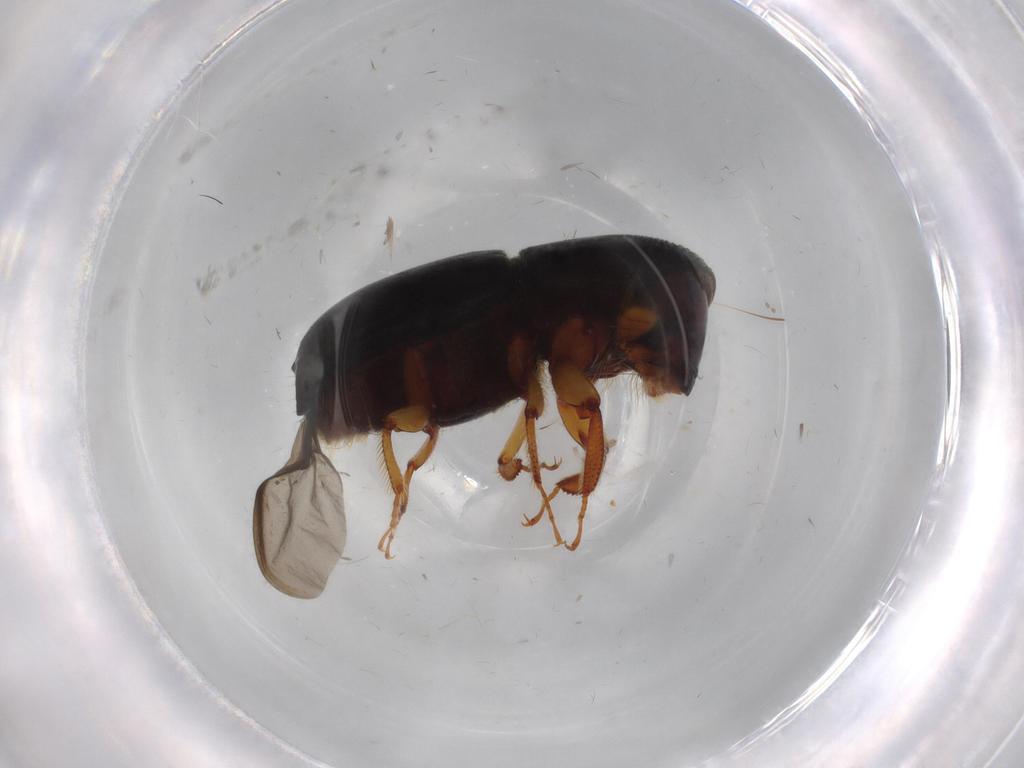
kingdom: Animalia
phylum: Arthropoda
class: Insecta
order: Coleoptera
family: Curculionidae
